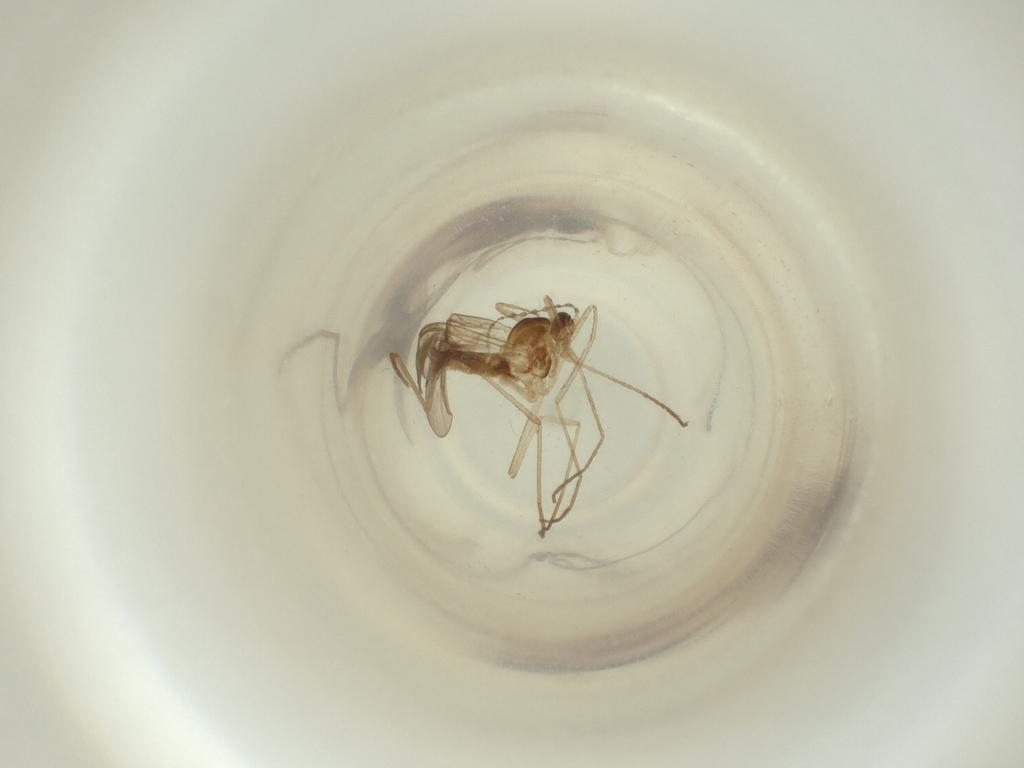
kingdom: Animalia
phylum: Arthropoda
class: Insecta
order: Diptera
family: Cecidomyiidae
